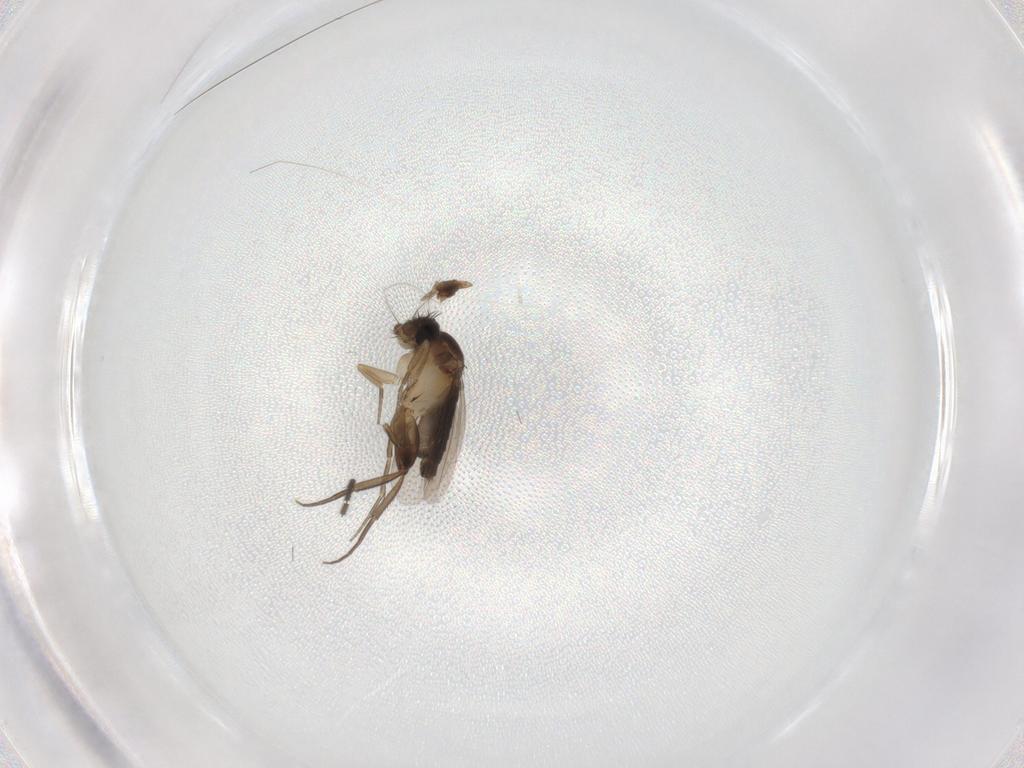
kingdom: Animalia
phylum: Arthropoda
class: Insecta
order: Diptera
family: Phoridae
